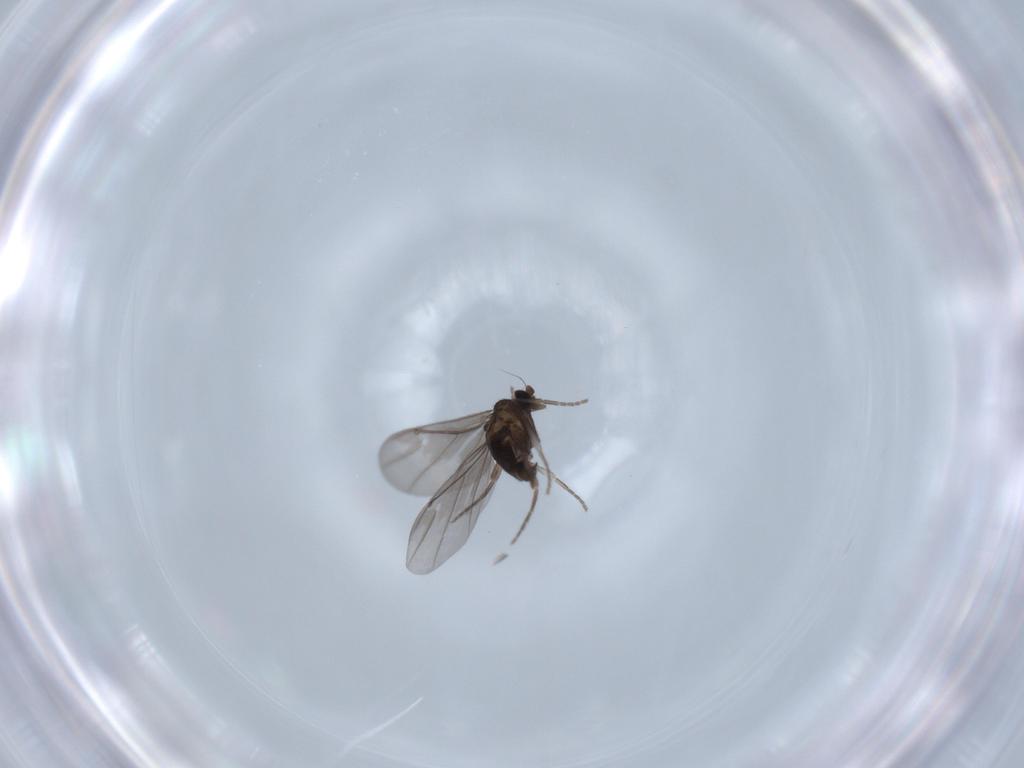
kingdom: Animalia
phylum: Arthropoda
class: Insecta
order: Diptera
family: Phoridae
